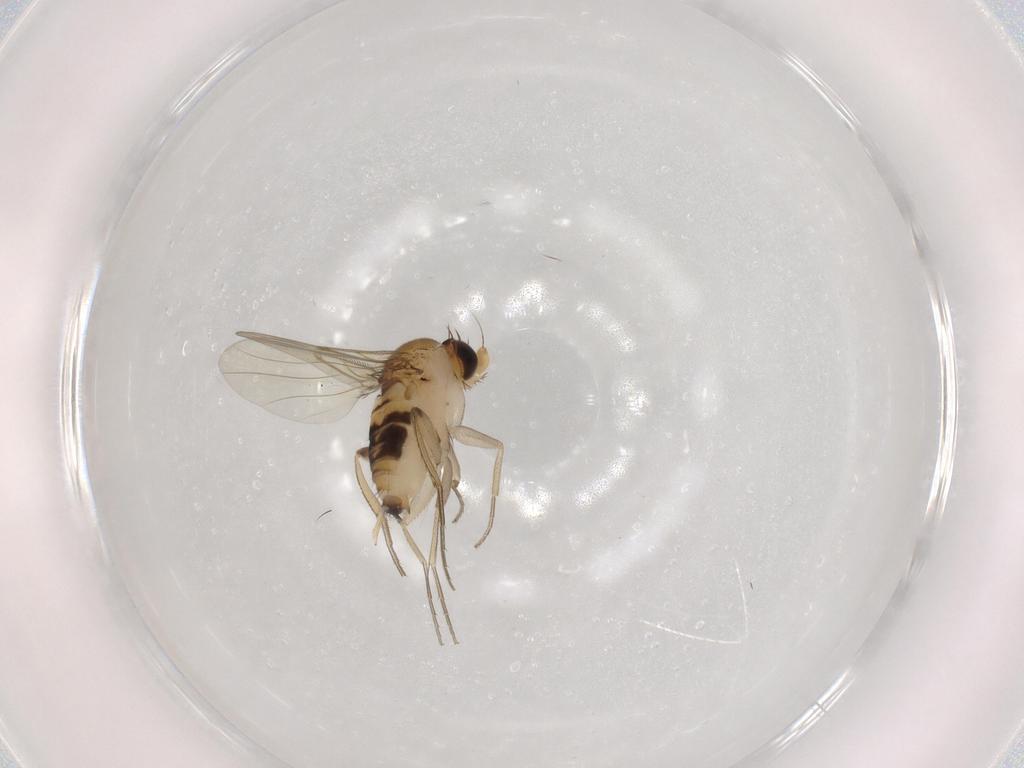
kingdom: Animalia
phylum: Arthropoda
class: Insecta
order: Diptera
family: Phoridae
